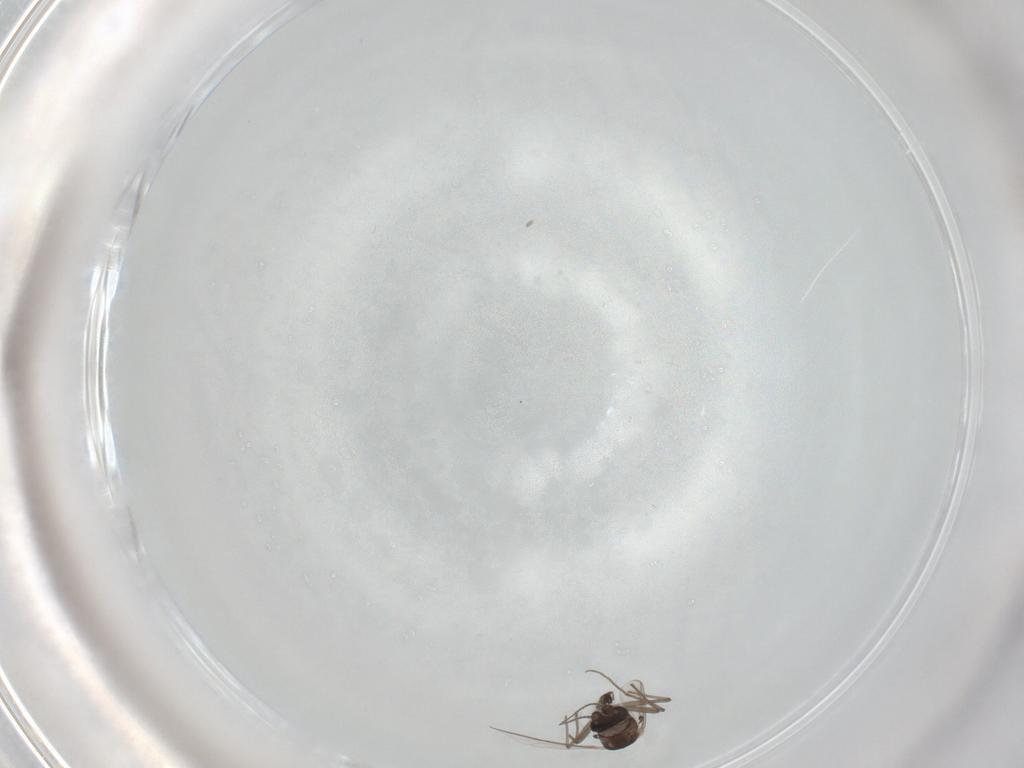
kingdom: Animalia
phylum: Arthropoda
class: Insecta
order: Diptera
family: Chironomidae
